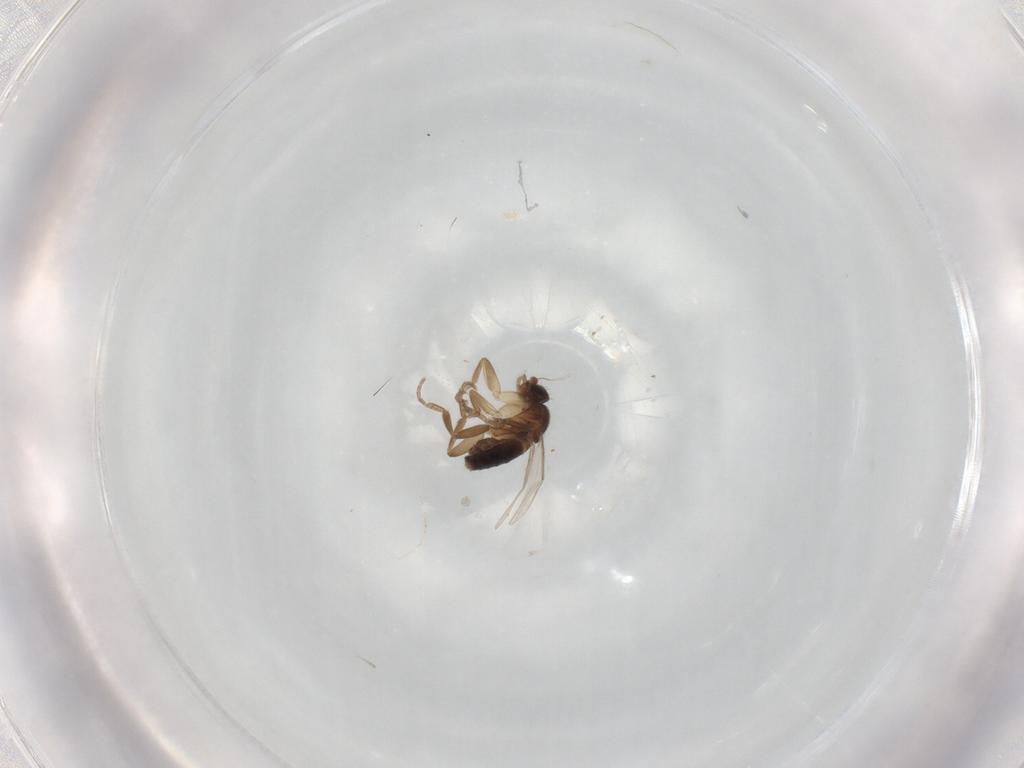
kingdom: Animalia
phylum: Arthropoda
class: Insecta
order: Diptera
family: Phoridae
